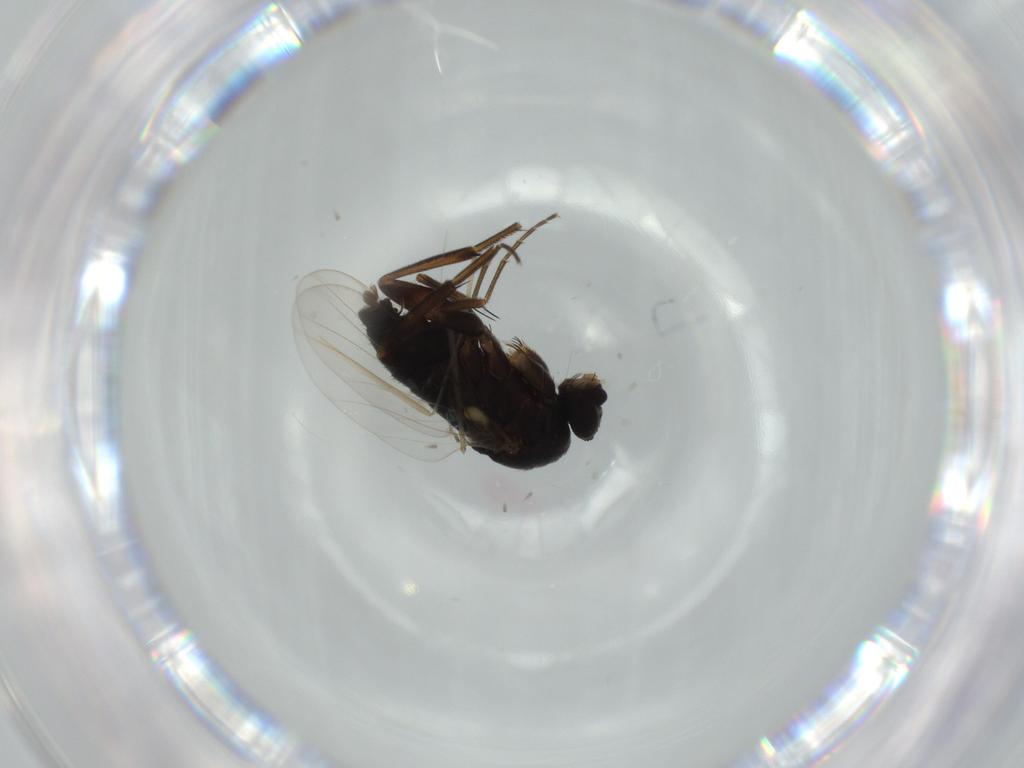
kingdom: Animalia
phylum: Arthropoda
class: Insecta
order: Diptera
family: Phoridae
